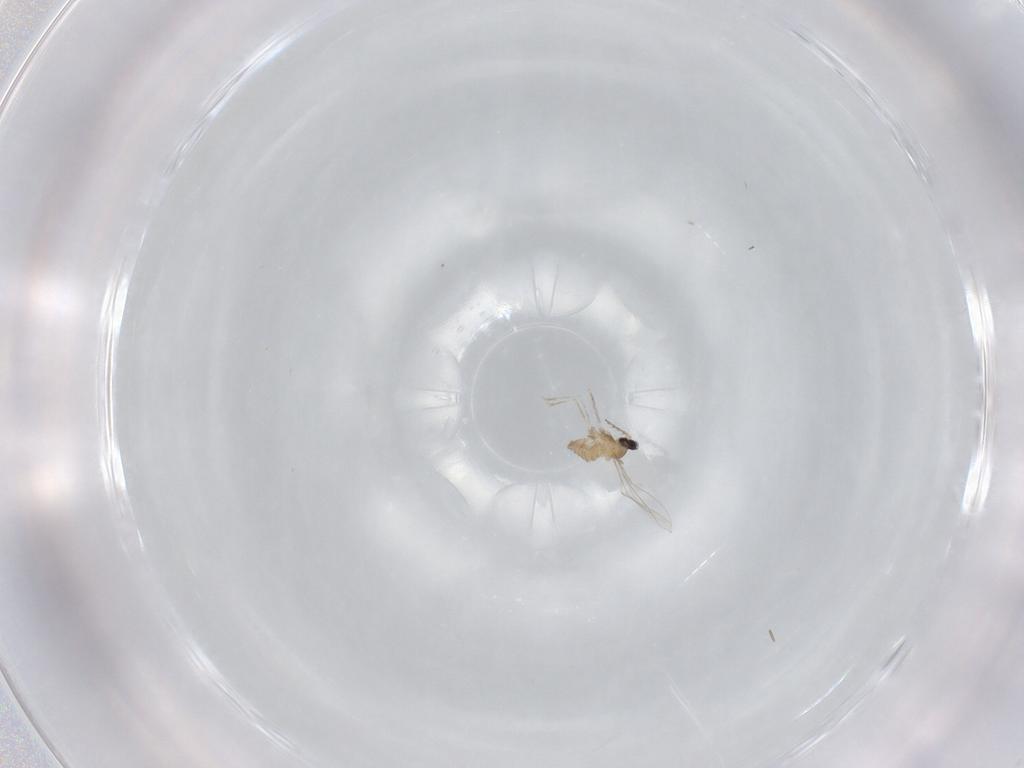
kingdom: Animalia
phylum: Arthropoda
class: Insecta
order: Diptera
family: Cecidomyiidae
